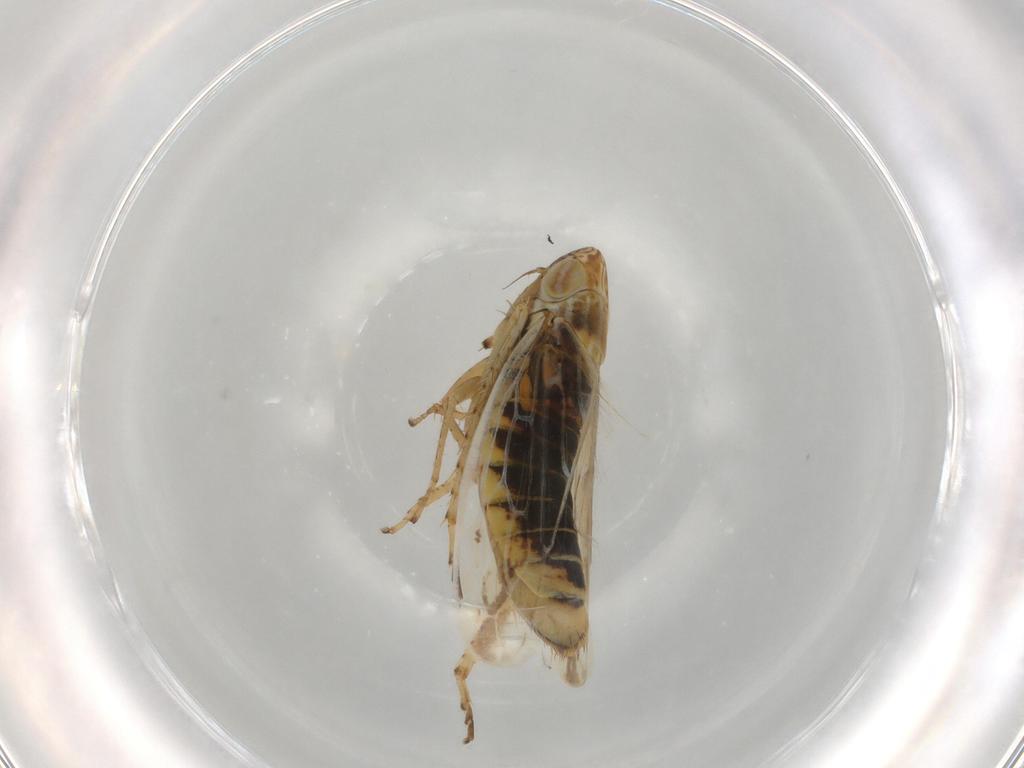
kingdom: Animalia
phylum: Arthropoda
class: Insecta
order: Hemiptera
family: Cicadellidae
